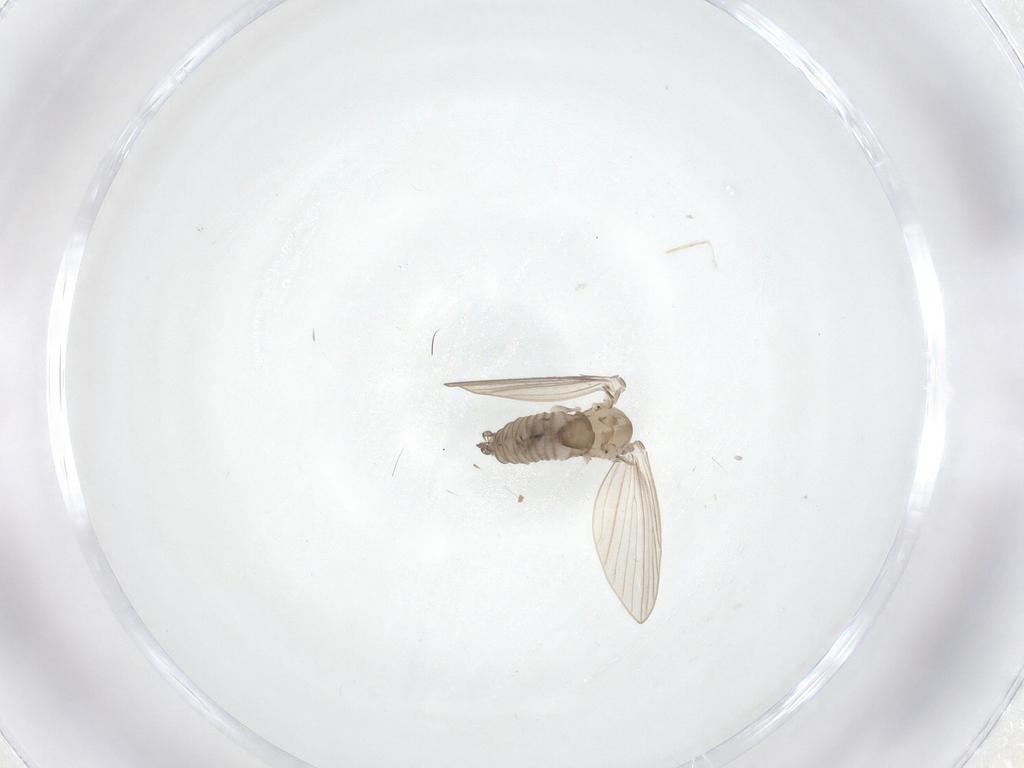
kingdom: Animalia
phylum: Arthropoda
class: Insecta
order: Diptera
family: Psychodidae
